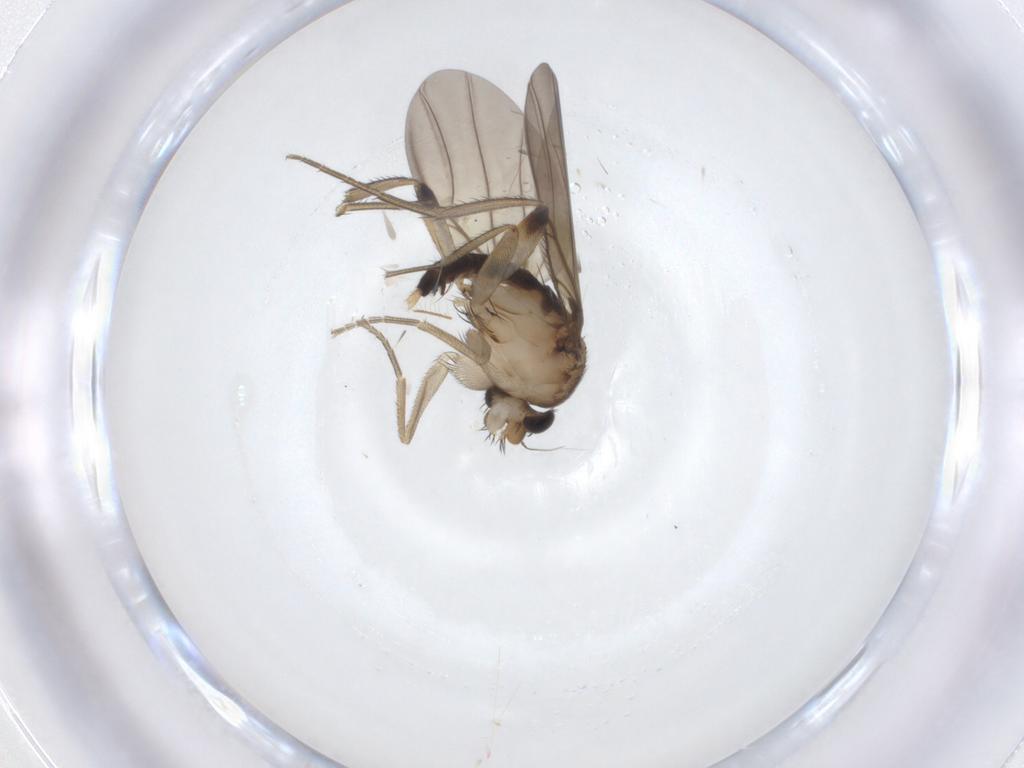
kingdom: Animalia
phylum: Arthropoda
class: Insecta
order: Diptera
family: Phoridae
